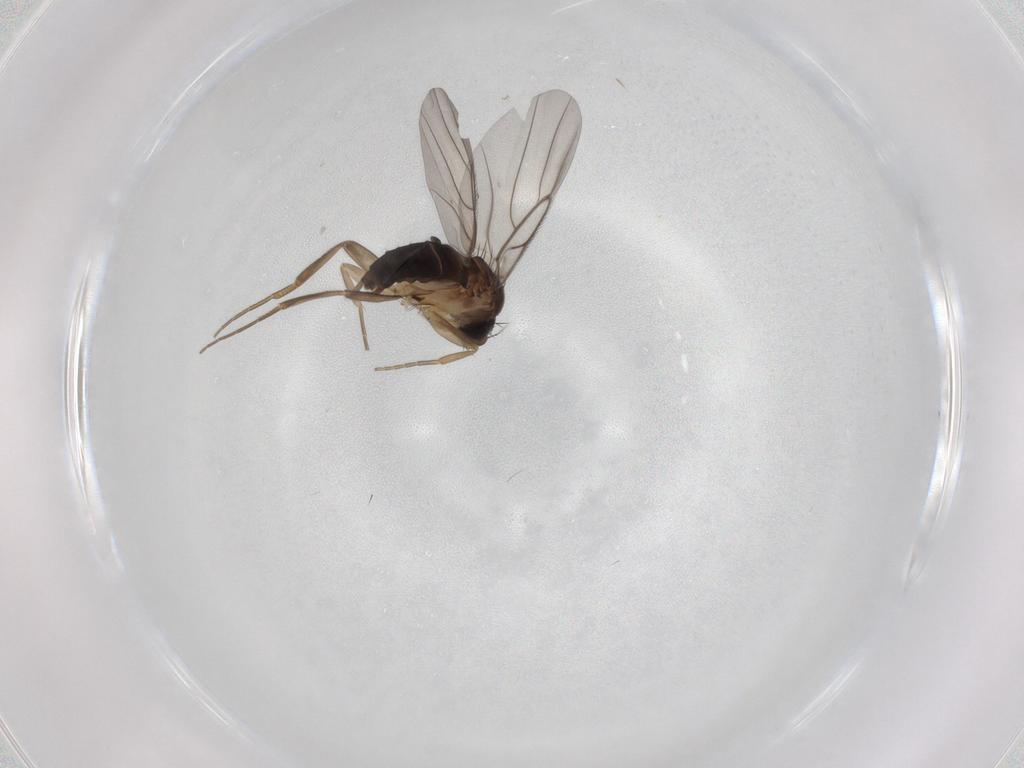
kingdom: Animalia
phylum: Arthropoda
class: Insecta
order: Diptera
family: Phoridae
